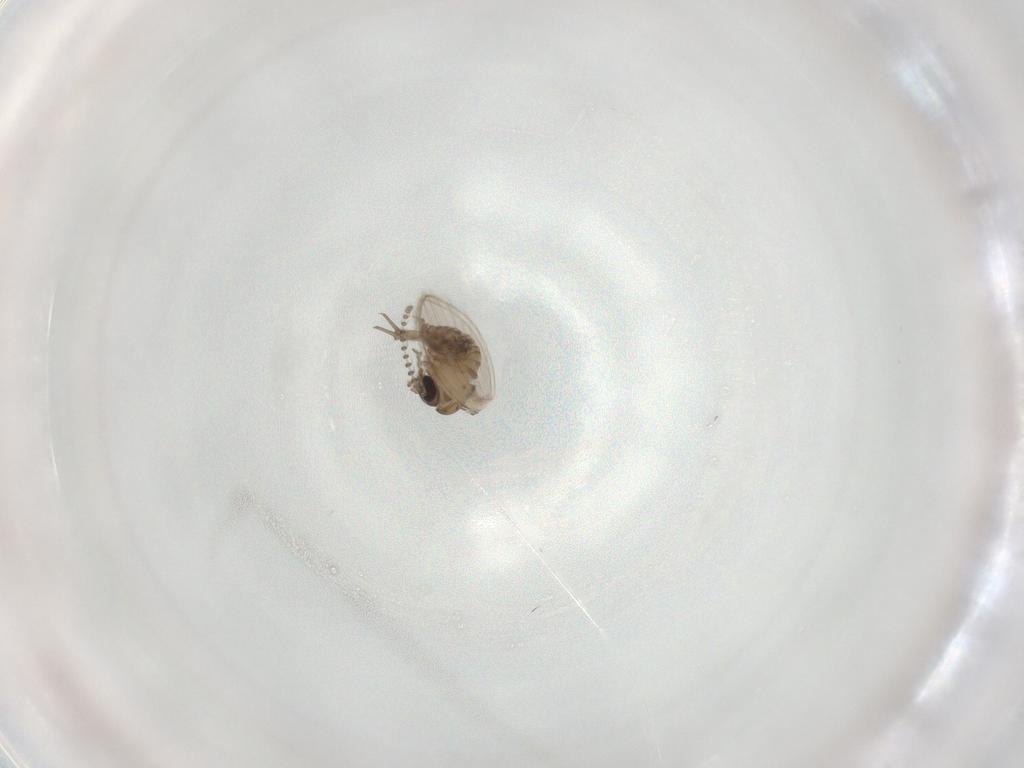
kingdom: Animalia
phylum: Arthropoda
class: Insecta
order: Diptera
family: Psychodidae
